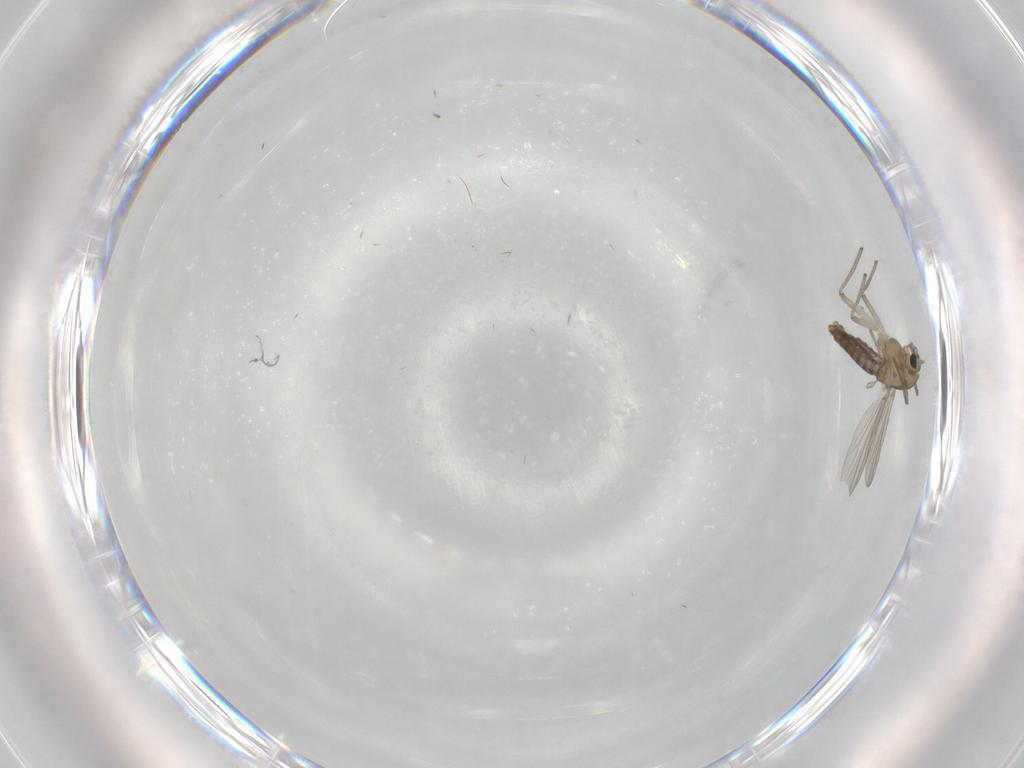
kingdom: Animalia
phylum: Arthropoda
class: Insecta
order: Diptera
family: Chironomidae
